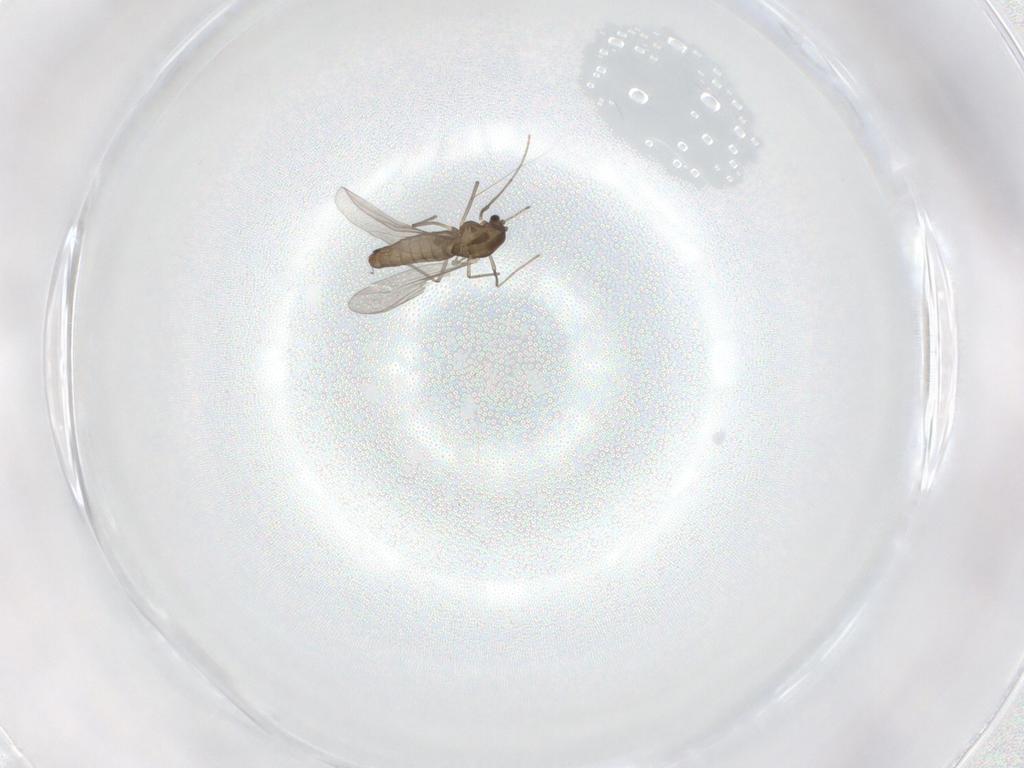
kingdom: Animalia
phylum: Arthropoda
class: Insecta
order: Diptera
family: Chironomidae
